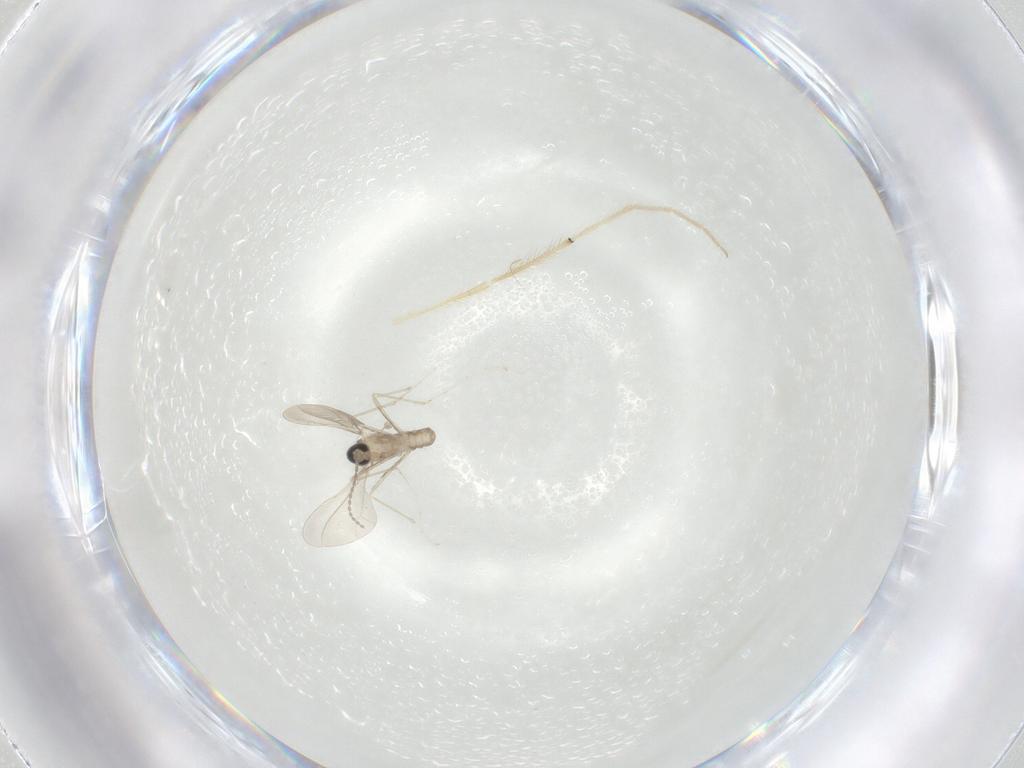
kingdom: Animalia
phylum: Arthropoda
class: Insecta
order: Diptera
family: Cecidomyiidae
